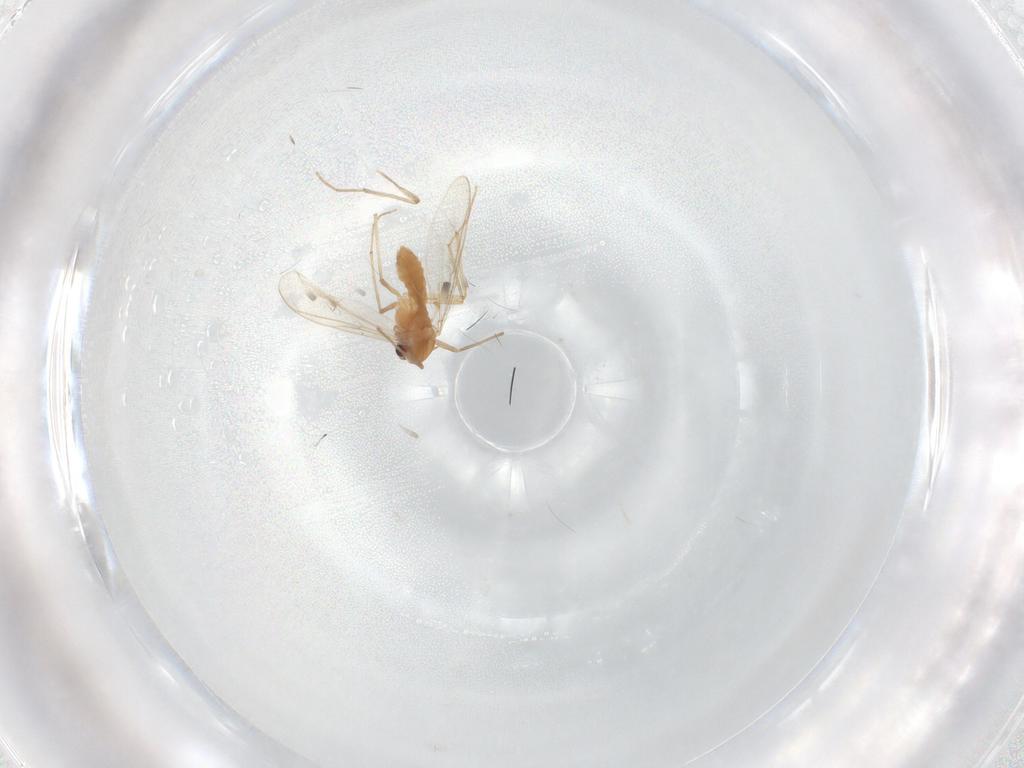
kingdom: Animalia
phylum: Arthropoda
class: Insecta
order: Diptera
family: Chironomidae
